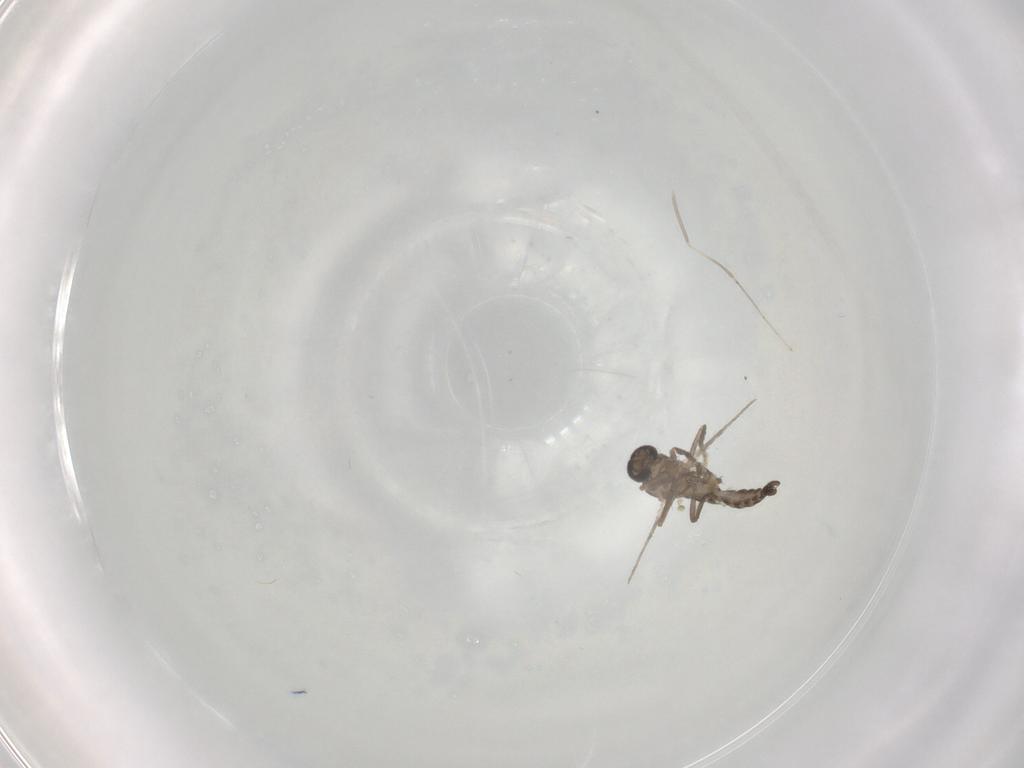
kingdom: Animalia
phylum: Arthropoda
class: Insecta
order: Diptera
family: Ceratopogonidae
